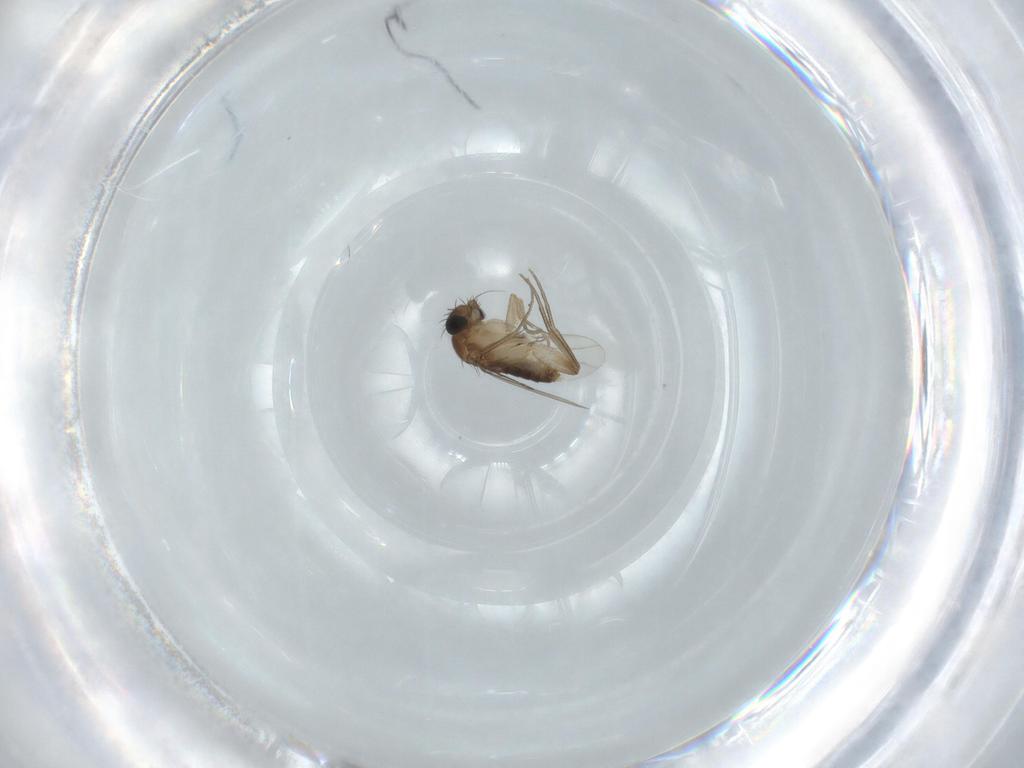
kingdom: Animalia
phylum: Arthropoda
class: Insecta
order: Diptera
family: Phoridae
